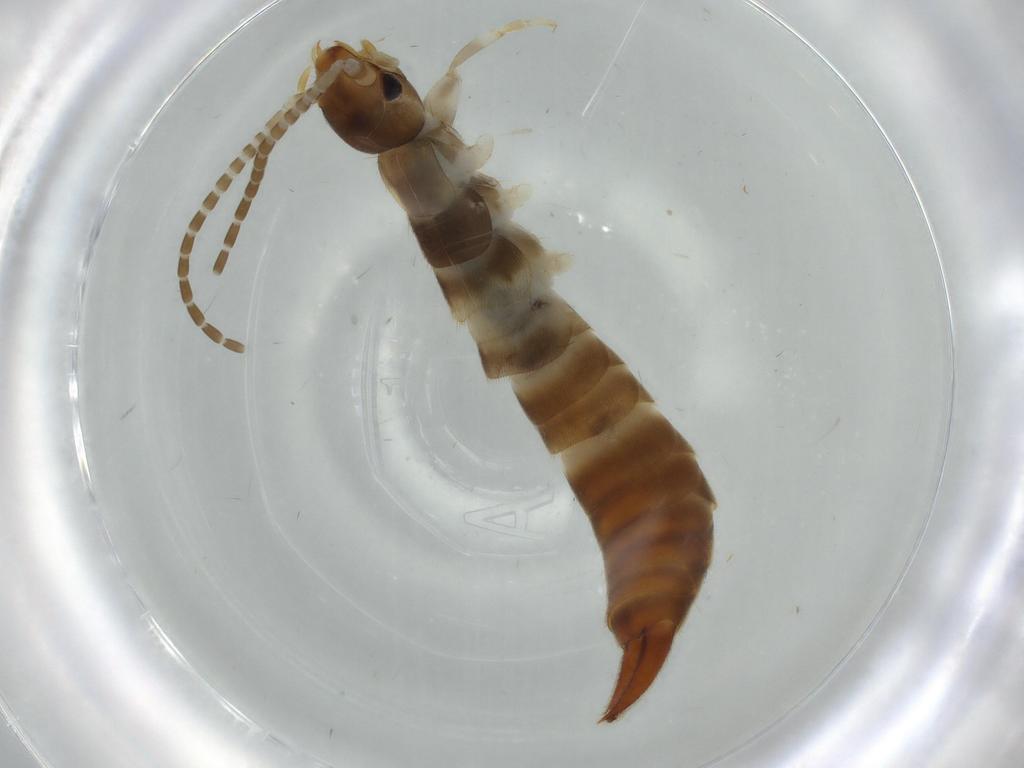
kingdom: Animalia
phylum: Arthropoda
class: Insecta
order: Dermaptera
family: Forficulidae
